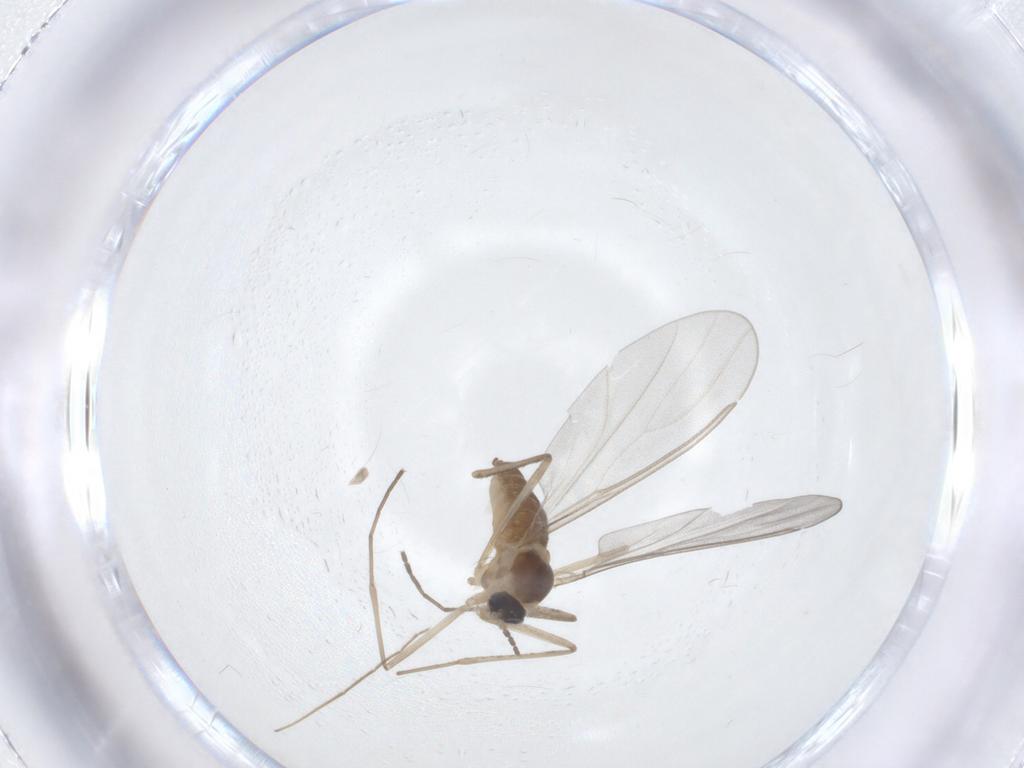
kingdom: Animalia
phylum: Arthropoda
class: Insecta
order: Diptera
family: Cecidomyiidae
